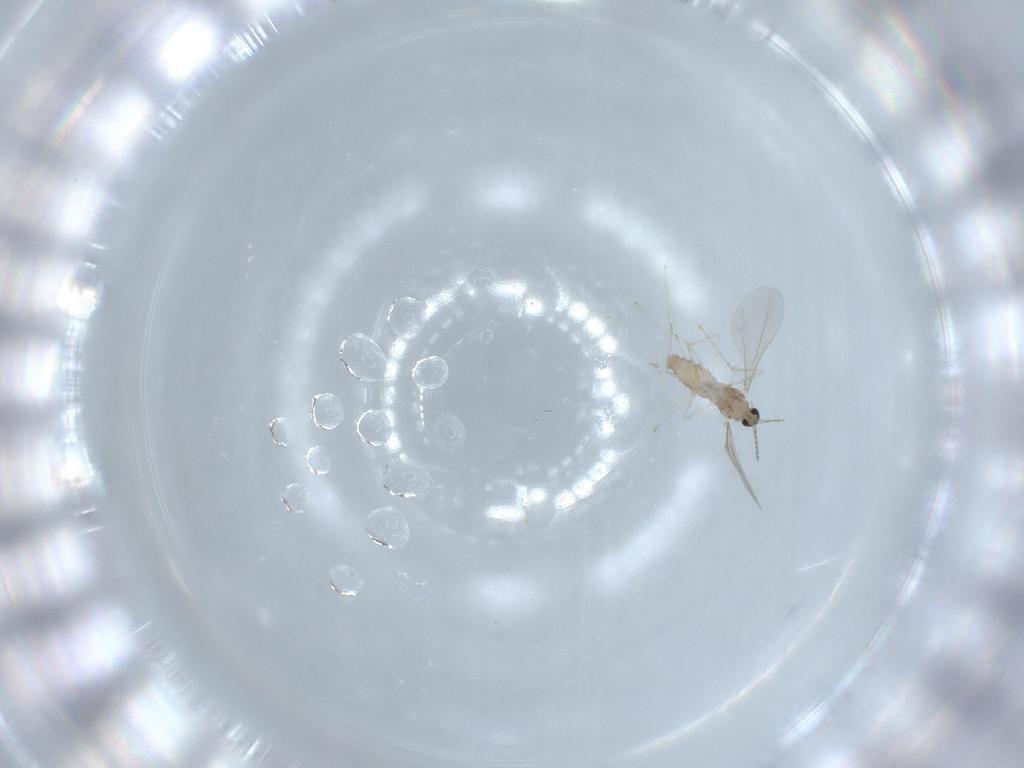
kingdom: Animalia
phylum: Arthropoda
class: Insecta
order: Diptera
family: Cecidomyiidae
